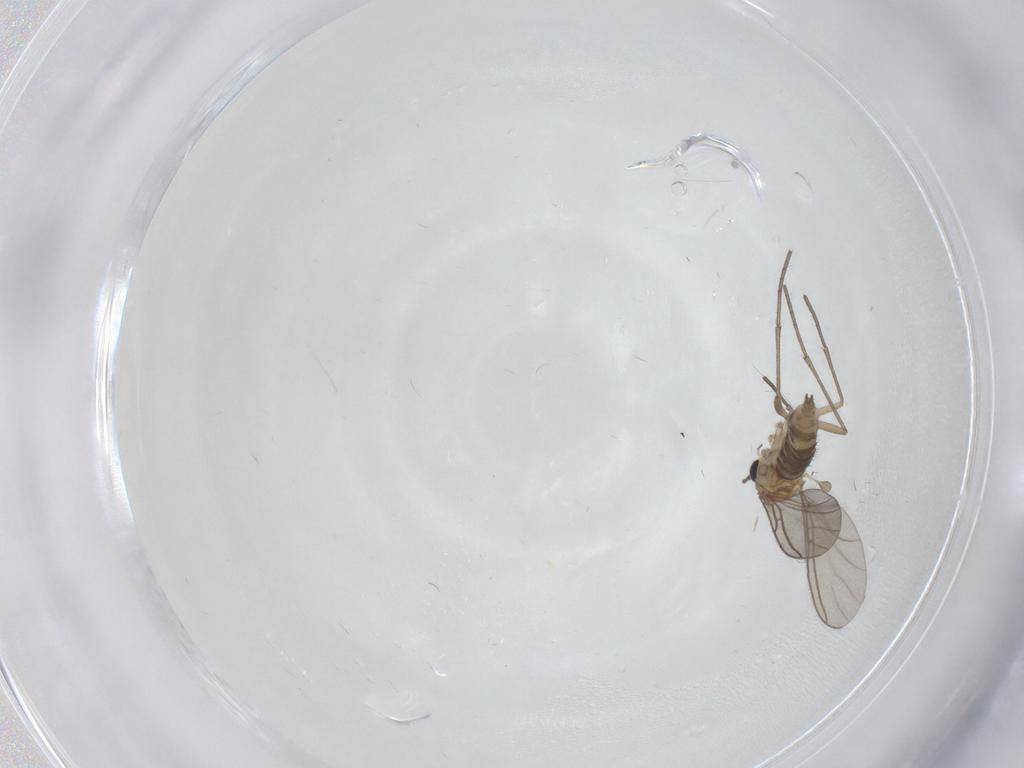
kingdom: Animalia
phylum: Arthropoda
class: Insecta
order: Diptera
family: Sciaridae
